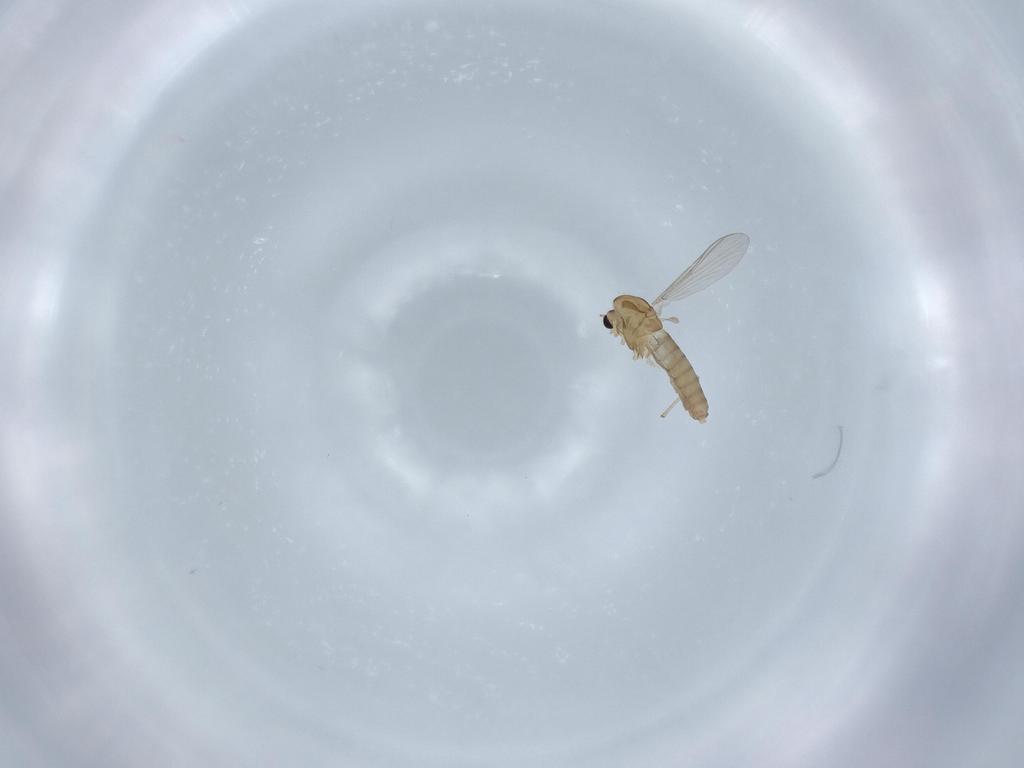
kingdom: Animalia
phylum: Arthropoda
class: Insecta
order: Diptera
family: Chironomidae
